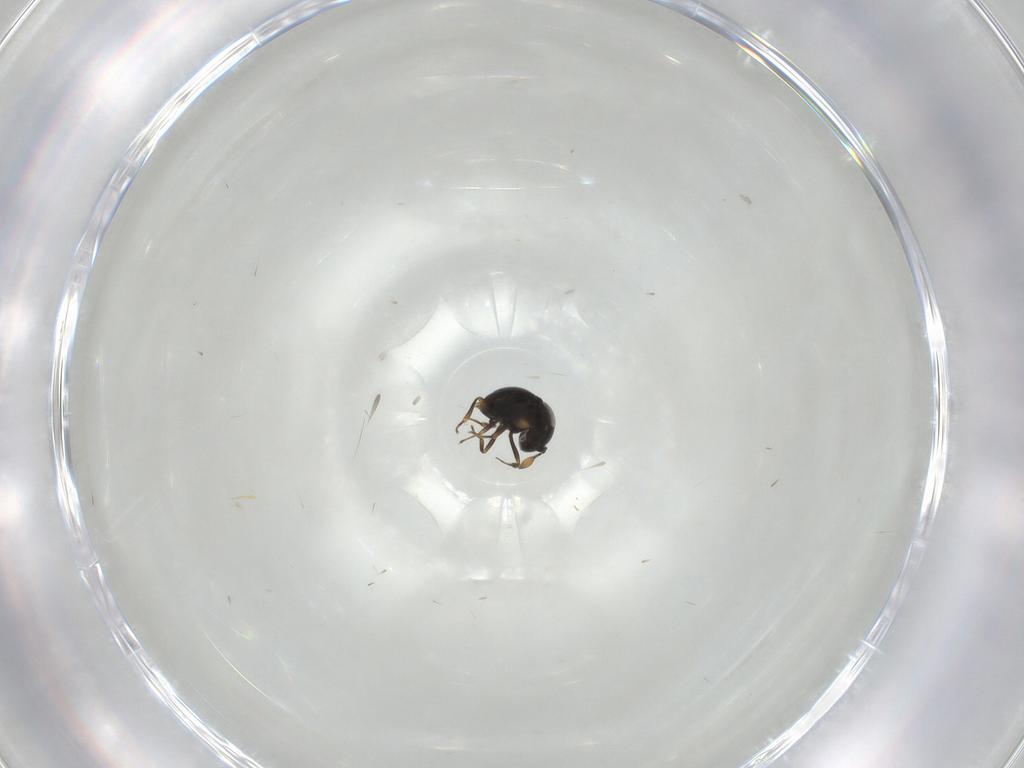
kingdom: Animalia
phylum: Arthropoda
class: Insecta
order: Hymenoptera
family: Scelionidae
